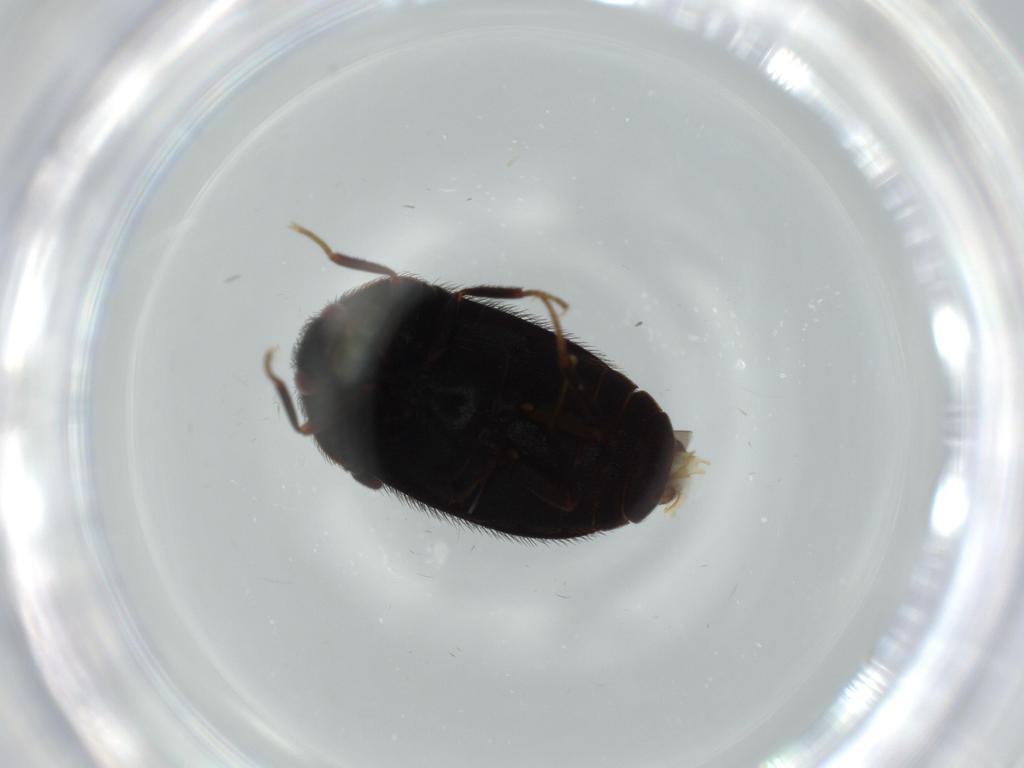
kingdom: Animalia
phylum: Arthropoda
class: Insecta
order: Coleoptera
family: Dermestidae
